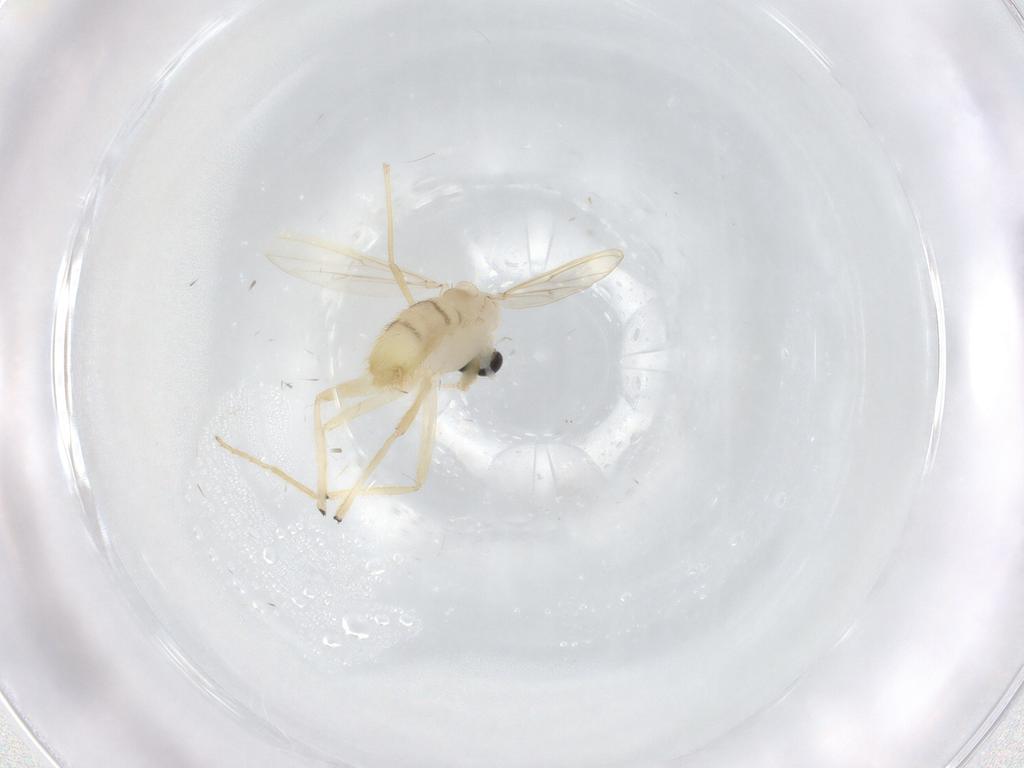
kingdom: Animalia
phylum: Arthropoda
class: Insecta
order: Diptera
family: Chironomidae
